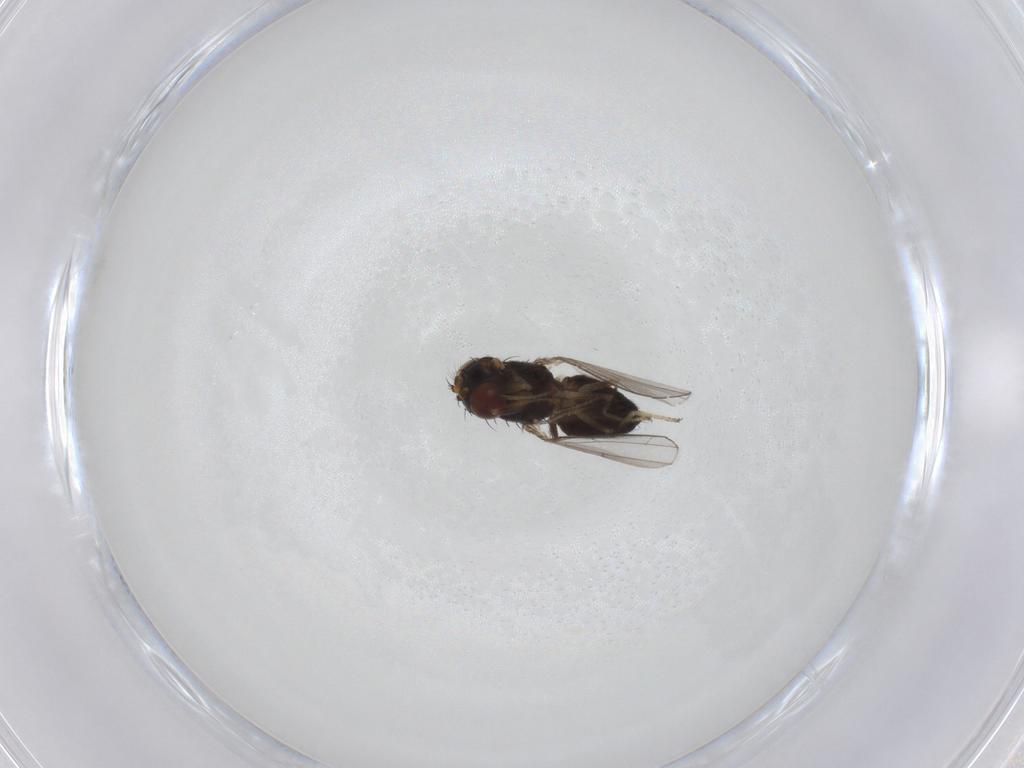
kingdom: Animalia
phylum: Arthropoda
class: Insecta
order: Diptera
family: Ephydridae
